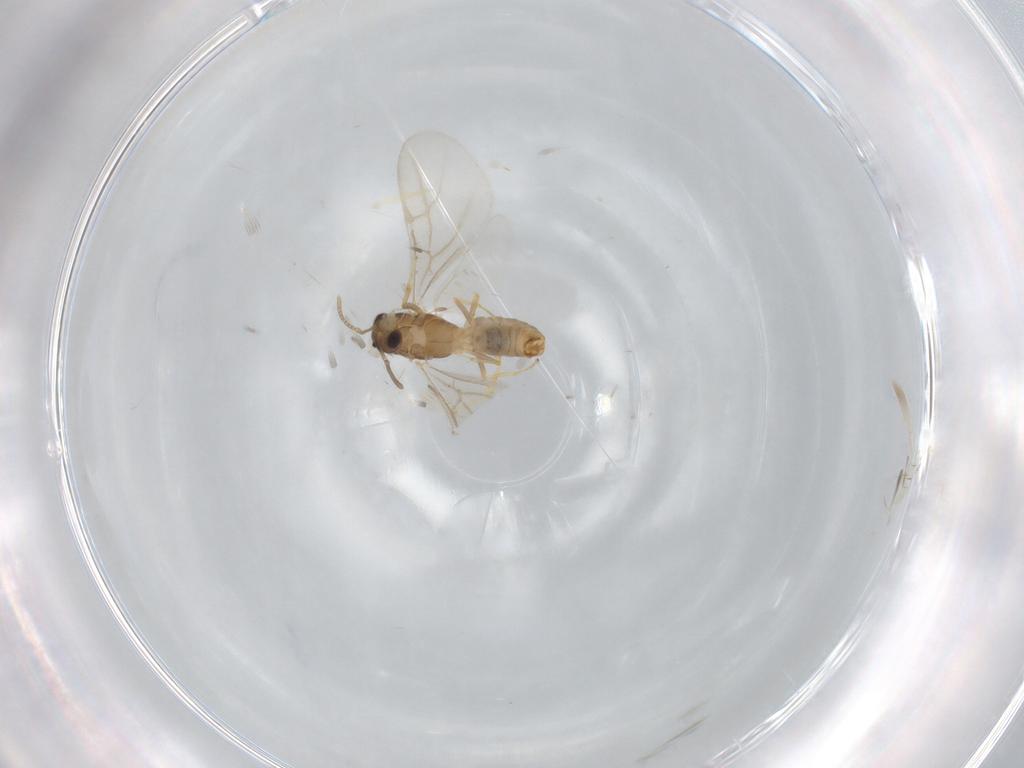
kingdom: Animalia
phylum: Arthropoda
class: Insecta
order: Hymenoptera
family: Formicidae
